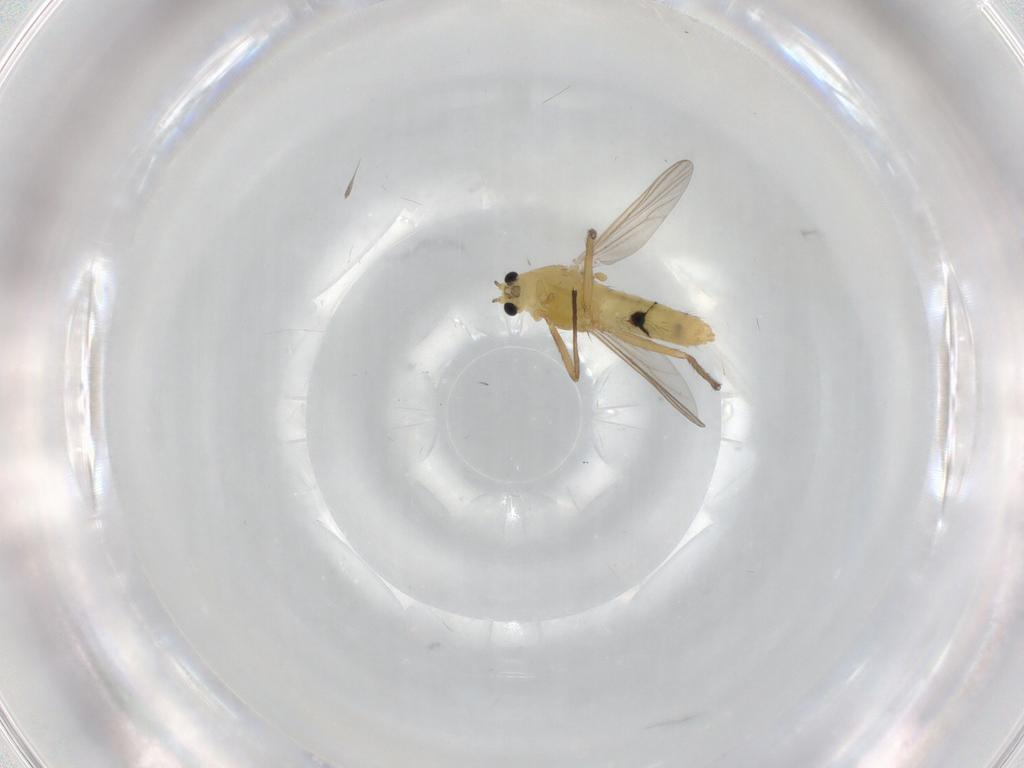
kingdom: Animalia
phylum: Arthropoda
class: Insecta
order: Diptera
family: Chironomidae
